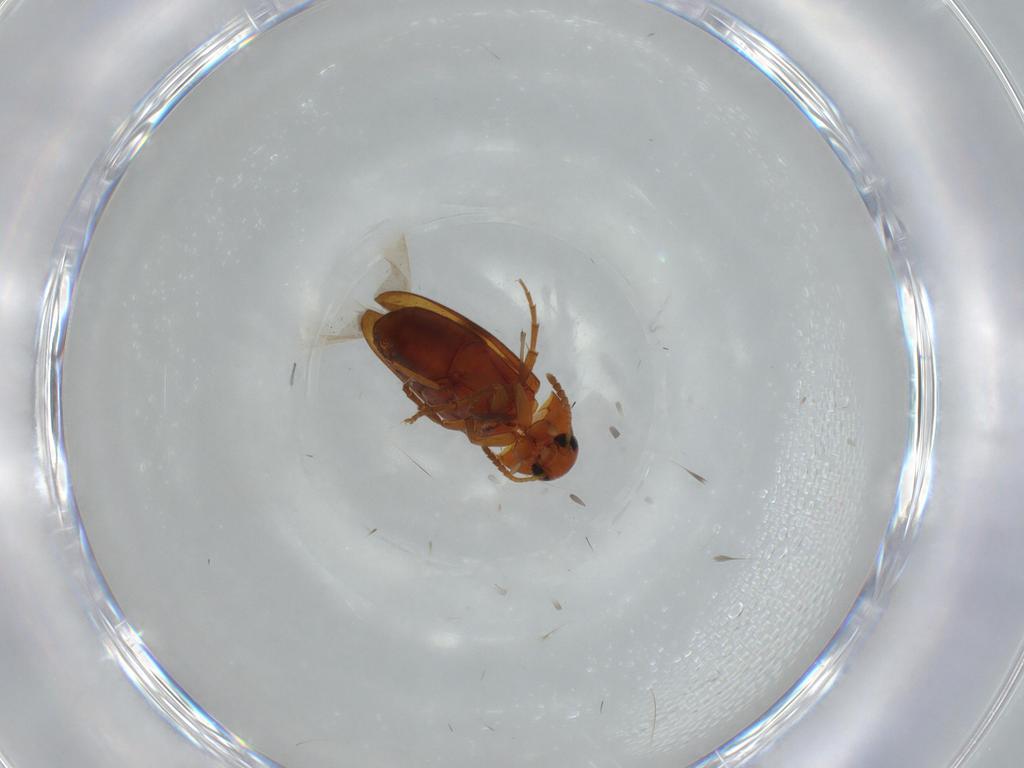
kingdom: Animalia
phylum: Arthropoda
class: Insecta
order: Coleoptera
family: Scraptiidae
